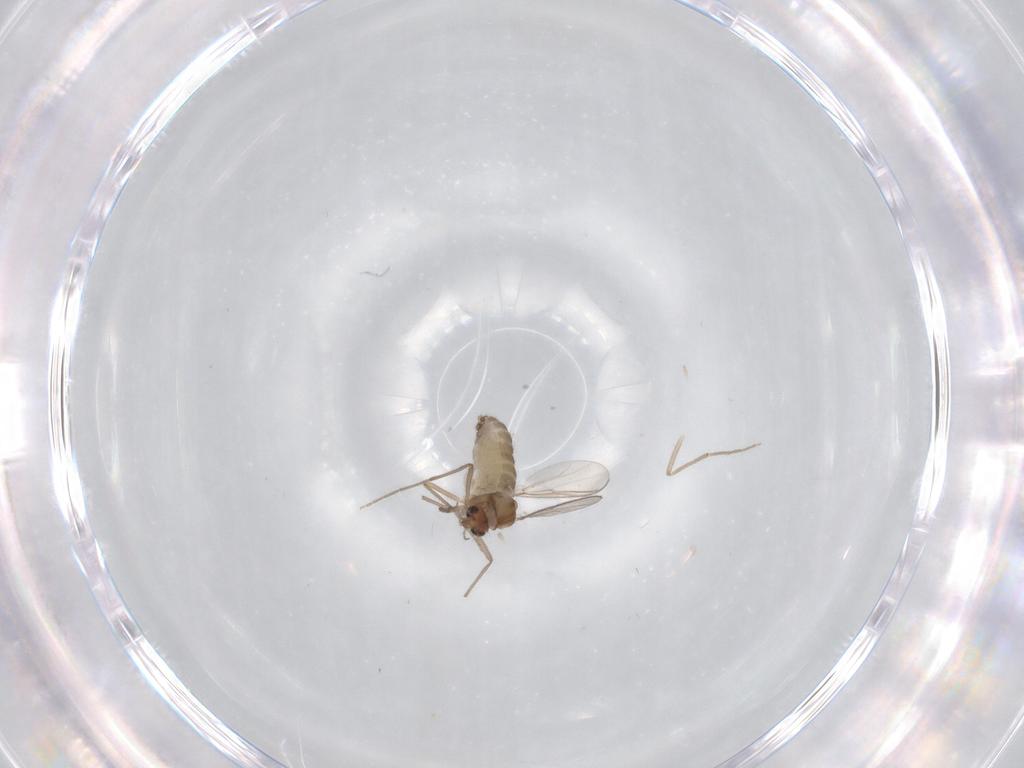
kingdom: Animalia
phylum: Arthropoda
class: Insecta
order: Diptera
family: Chironomidae
